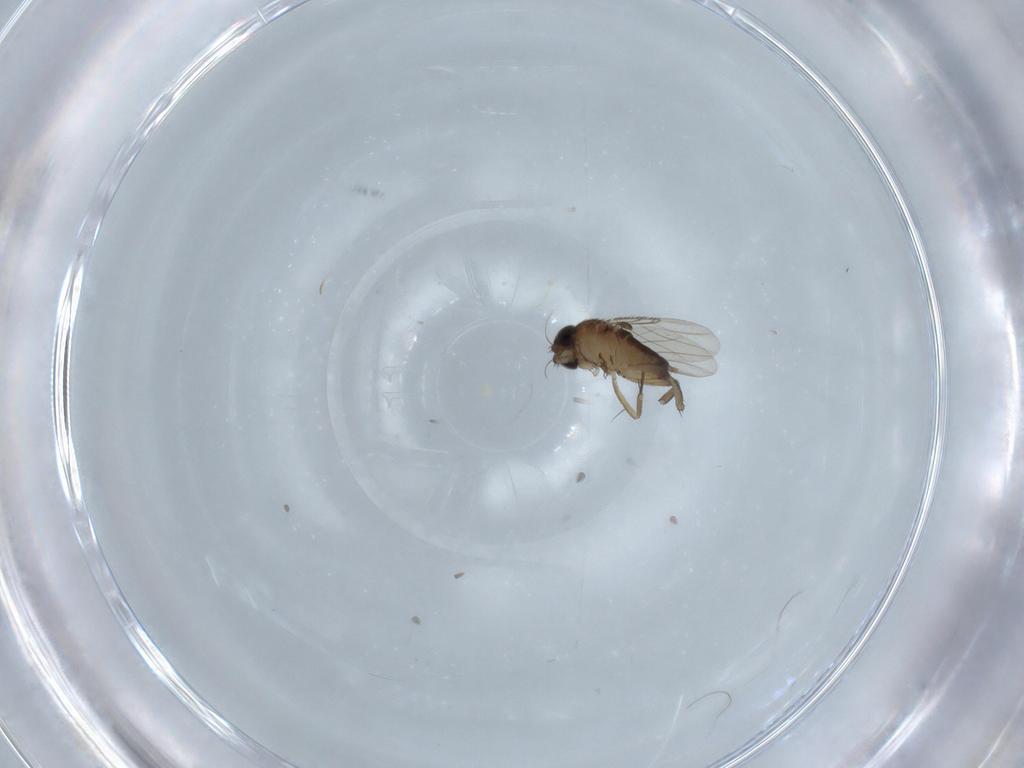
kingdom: Animalia
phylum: Arthropoda
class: Insecta
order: Diptera
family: Phoridae
